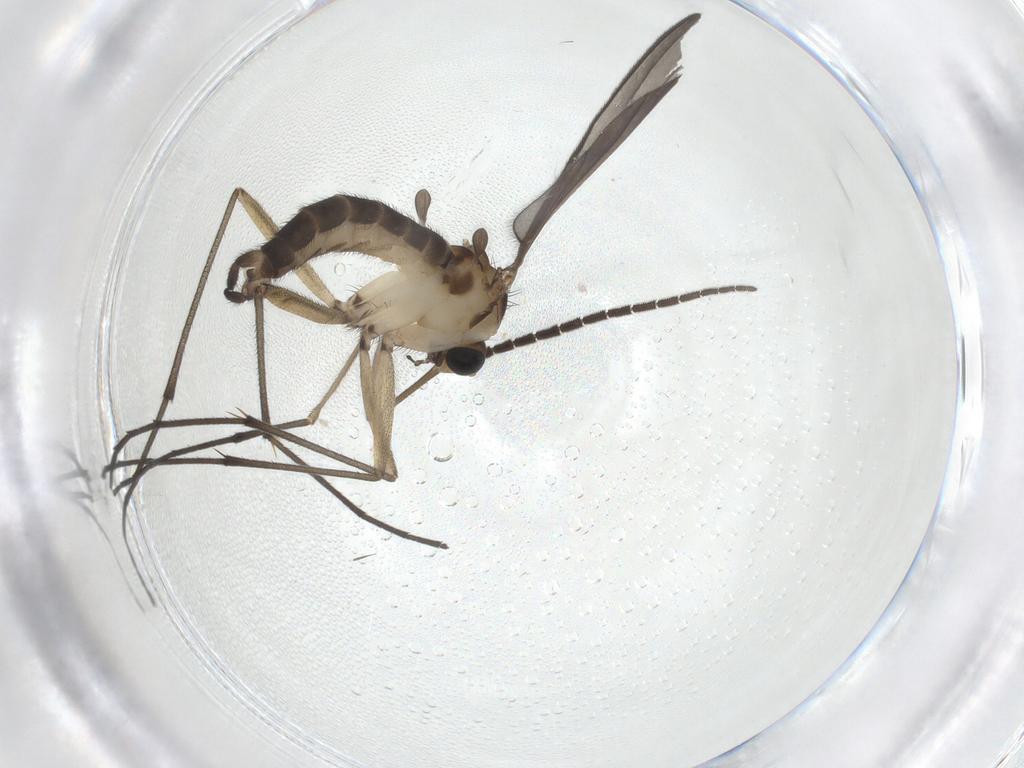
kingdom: Animalia
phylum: Arthropoda
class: Insecta
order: Diptera
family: Sciaridae
